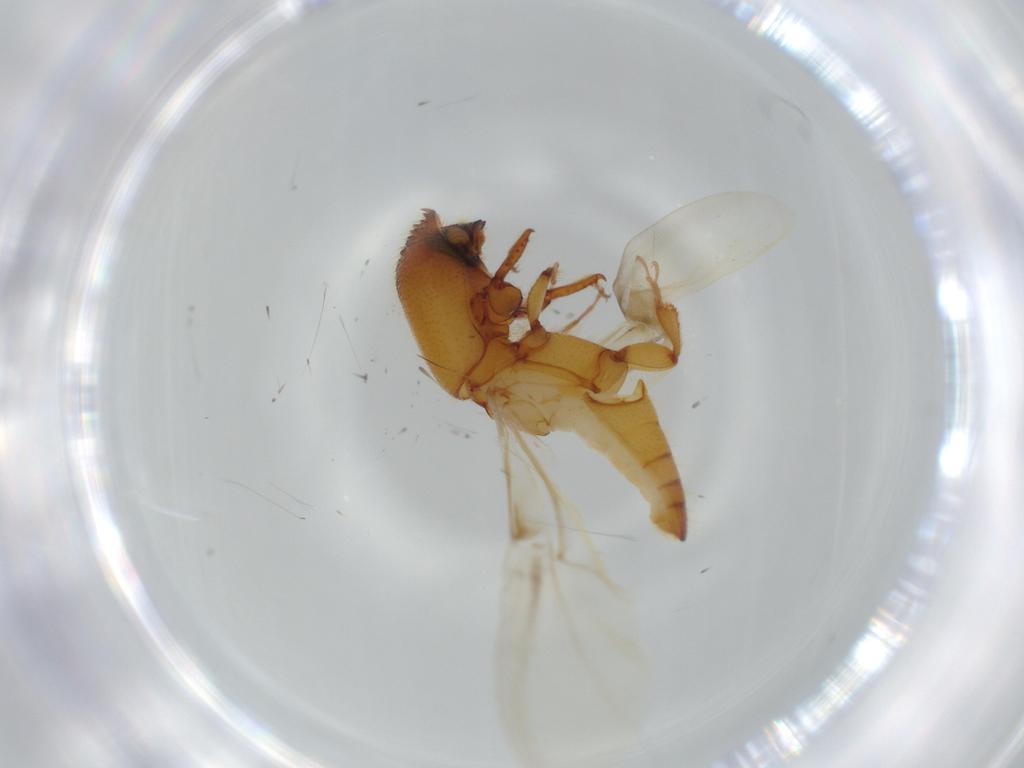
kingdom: Animalia
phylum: Arthropoda
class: Insecta
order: Coleoptera
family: Curculionidae
